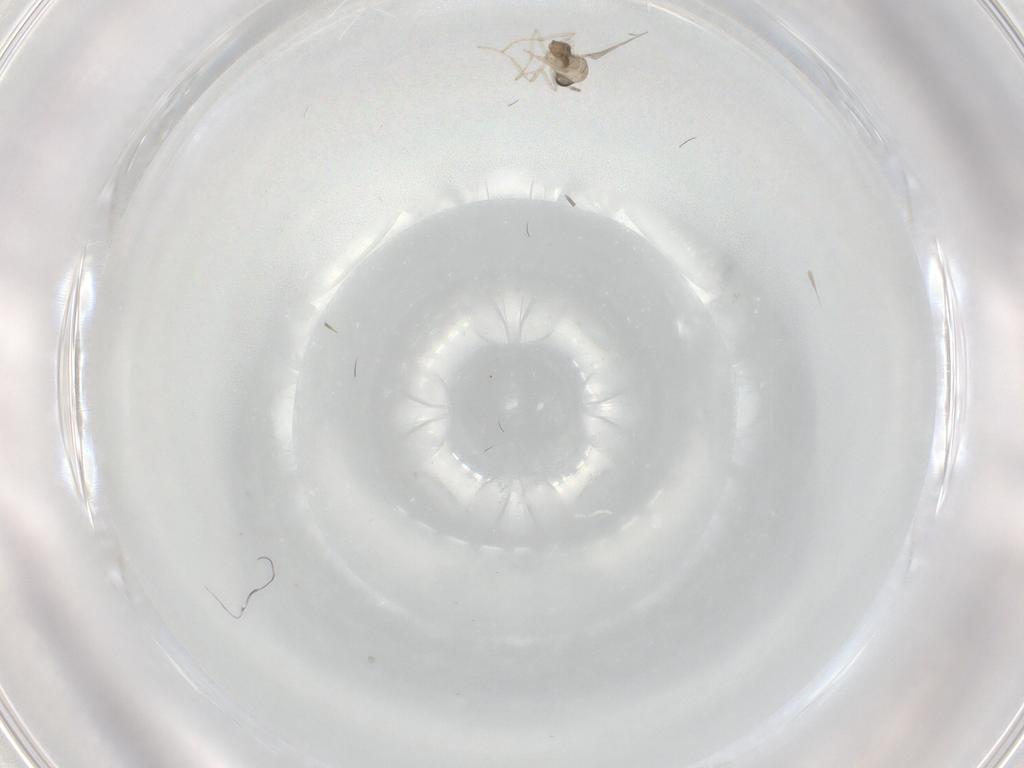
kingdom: Animalia
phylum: Arthropoda
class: Insecta
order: Diptera
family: Cecidomyiidae
